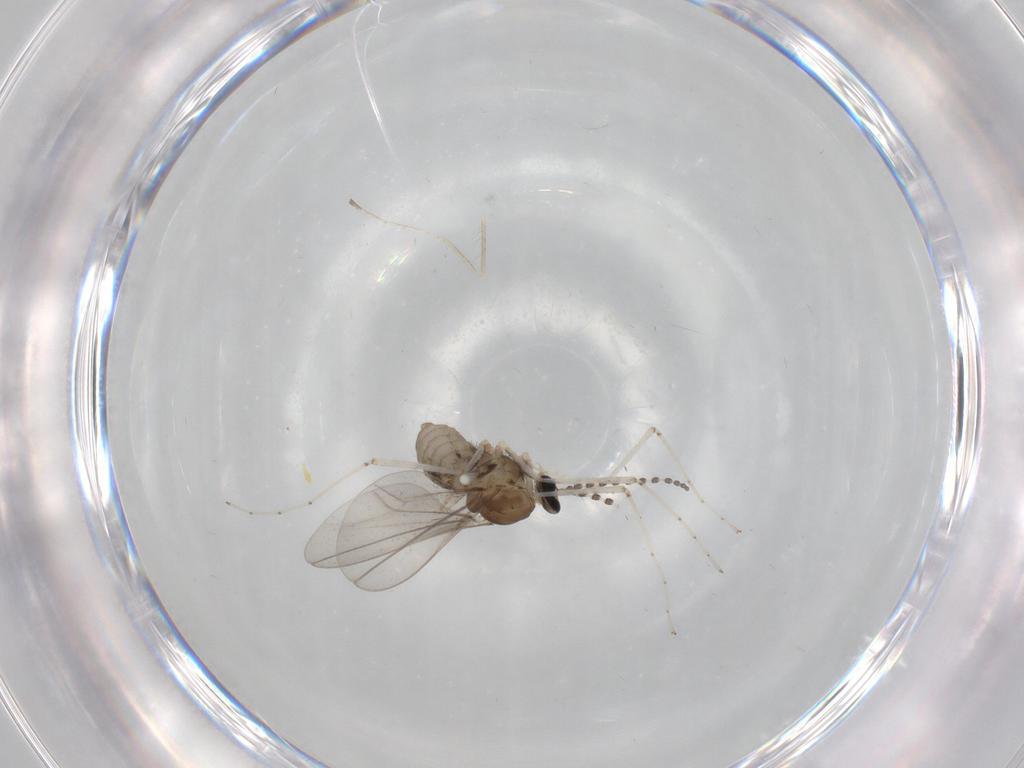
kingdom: Animalia
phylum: Arthropoda
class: Insecta
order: Diptera
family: Cecidomyiidae
